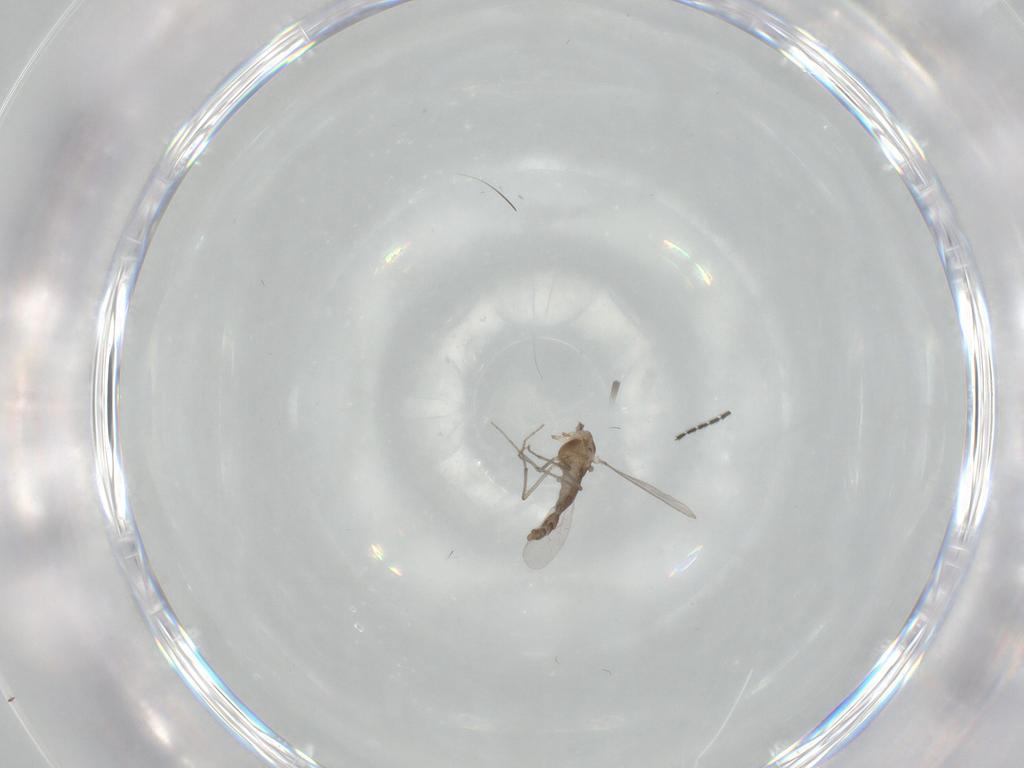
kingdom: Animalia
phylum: Arthropoda
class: Insecta
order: Diptera
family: Chironomidae
